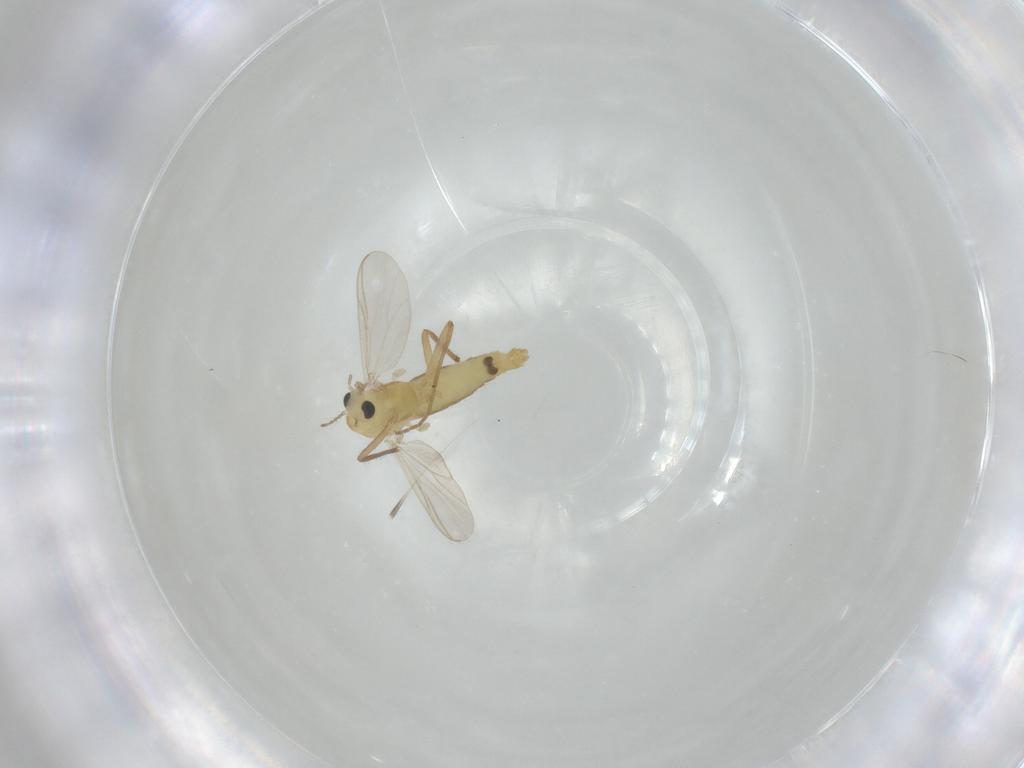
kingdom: Animalia
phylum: Arthropoda
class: Insecta
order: Diptera
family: Chironomidae
